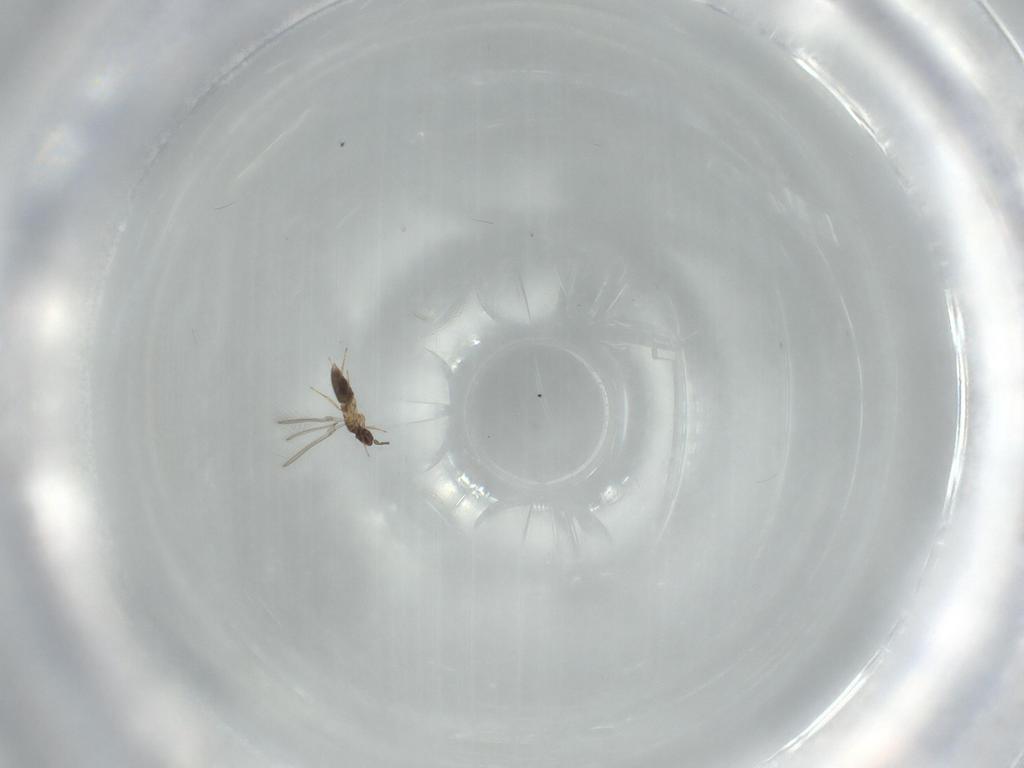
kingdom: Animalia
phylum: Arthropoda
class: Insecta
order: Hymenoptera
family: Mymaridae
